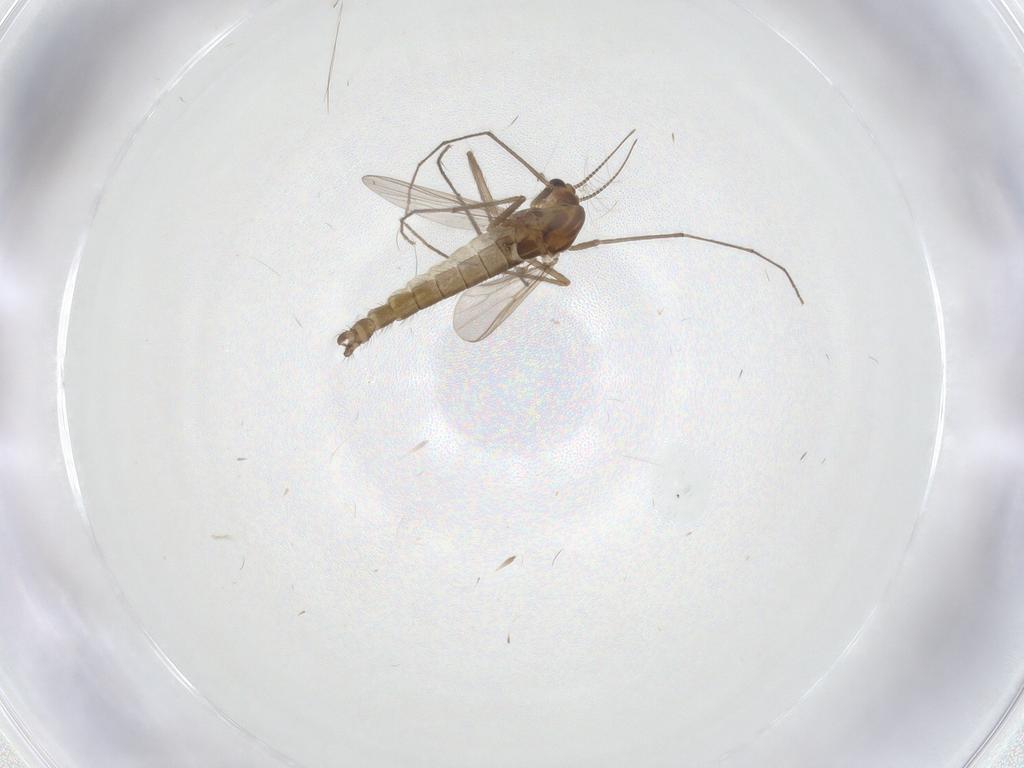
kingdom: Animalia
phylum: Arthropoda
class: Insecta
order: Diptera
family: Chironomidae
